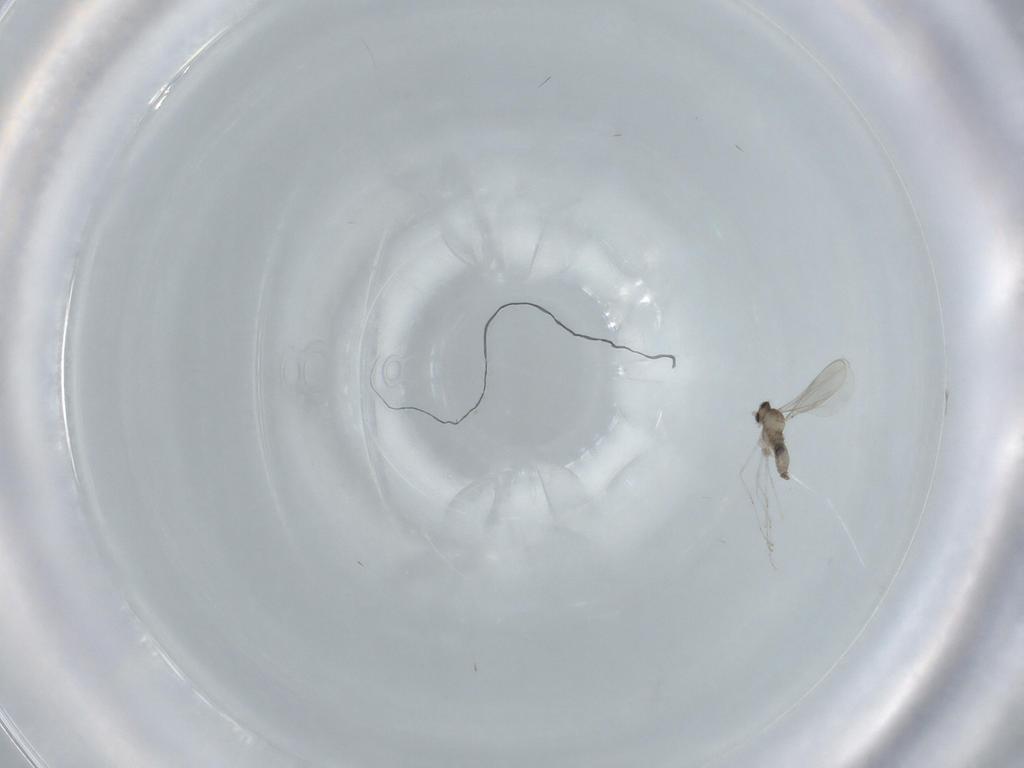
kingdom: Animalia
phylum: Arthropoda
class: Insecta
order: Diptera
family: Cecidomyiidae
